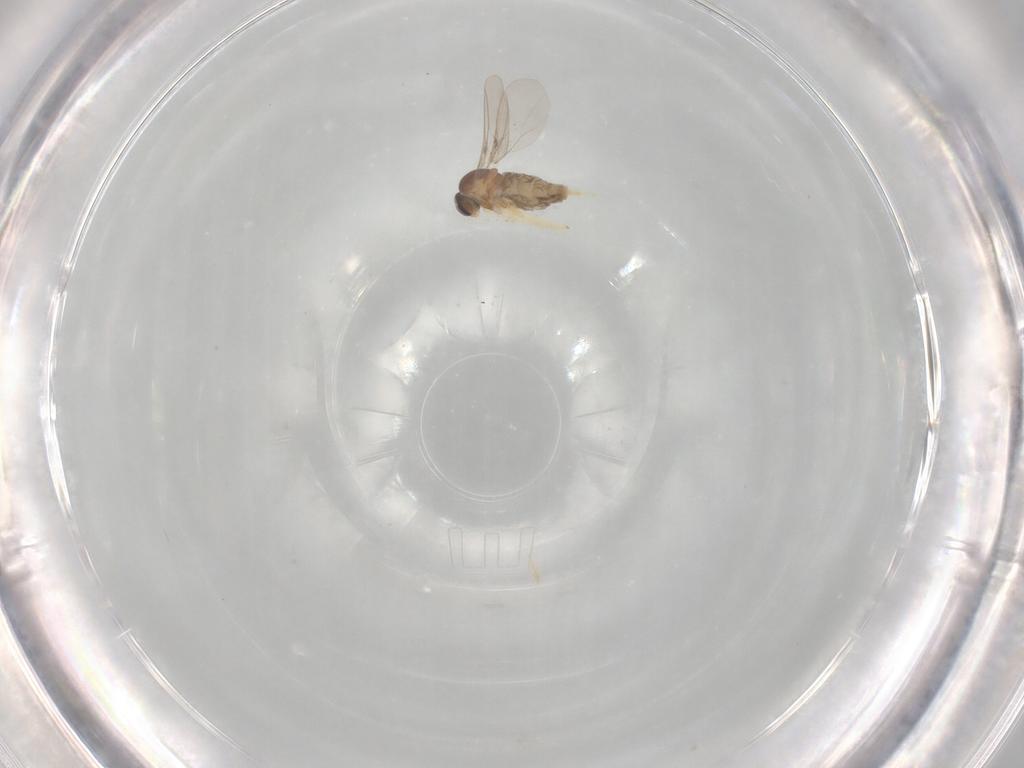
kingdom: Animalia
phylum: Arthropoda
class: Insecta
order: Diptera
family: Cecidomyiidae
